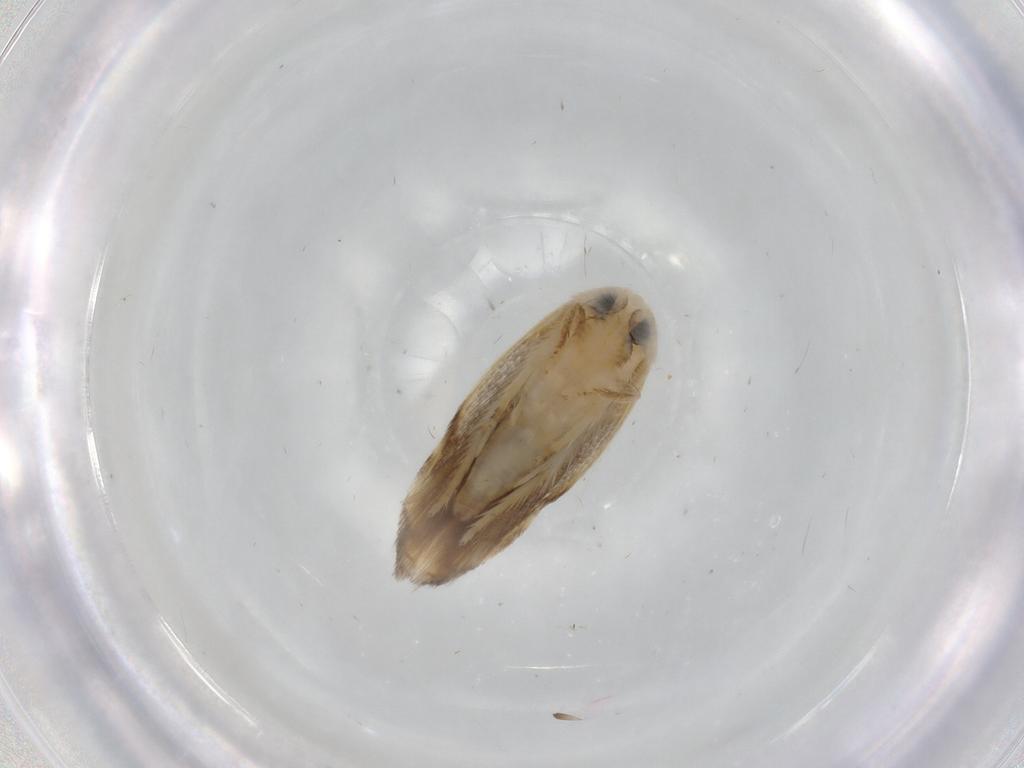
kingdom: Animalia
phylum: Arthropoda
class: Insecta
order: Lepidoptera
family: Opostegidae
